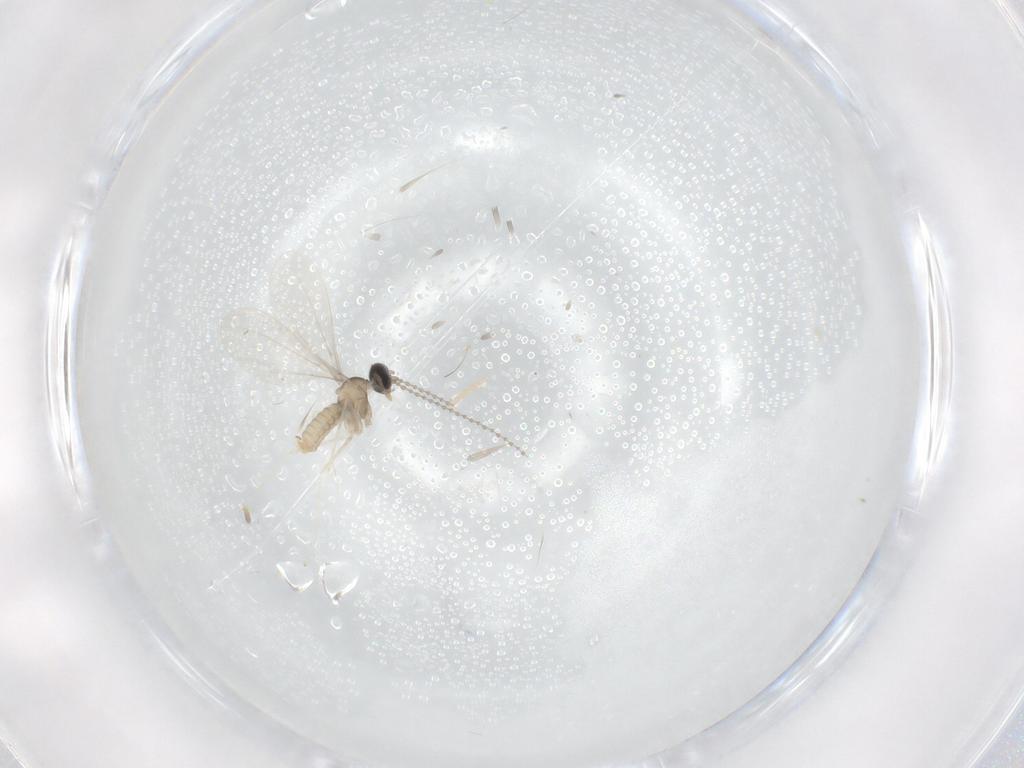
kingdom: Animalia
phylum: Arthropoda
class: Insecta
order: Diptera
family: Cecidomyiidae
